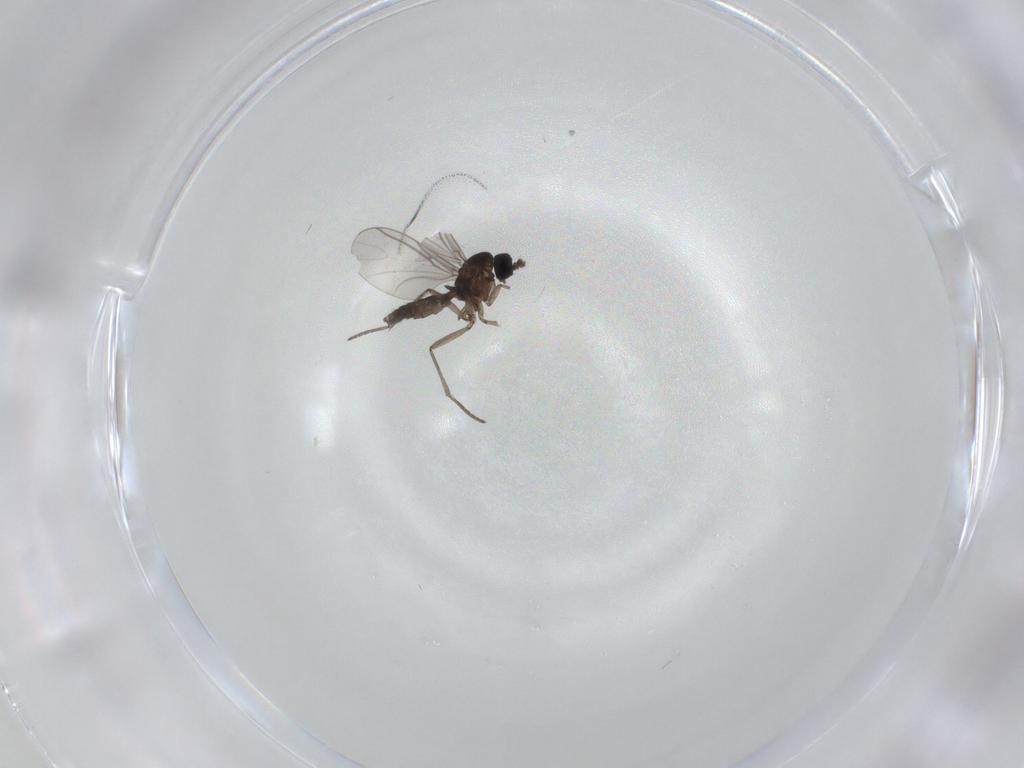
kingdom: Animalia
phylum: Arthropoda
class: Insecta
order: Diptera
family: Ceratopogonidae
